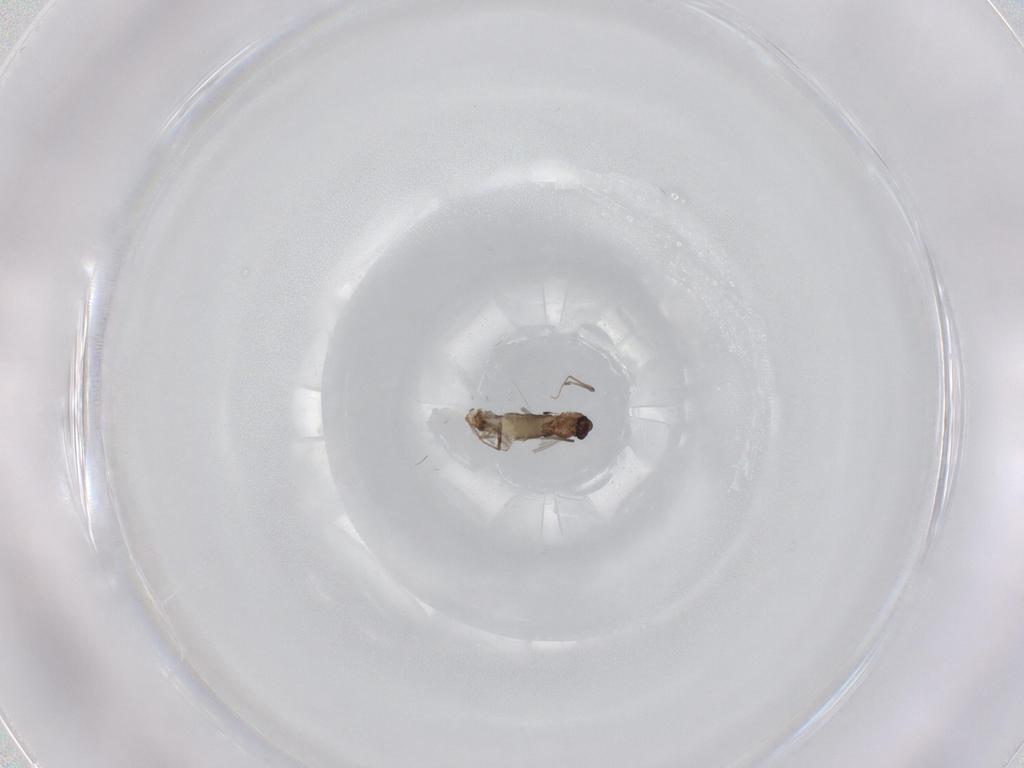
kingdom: Animalia
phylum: Arthropoda
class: Insecta
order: Diptera
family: Chironomidae
